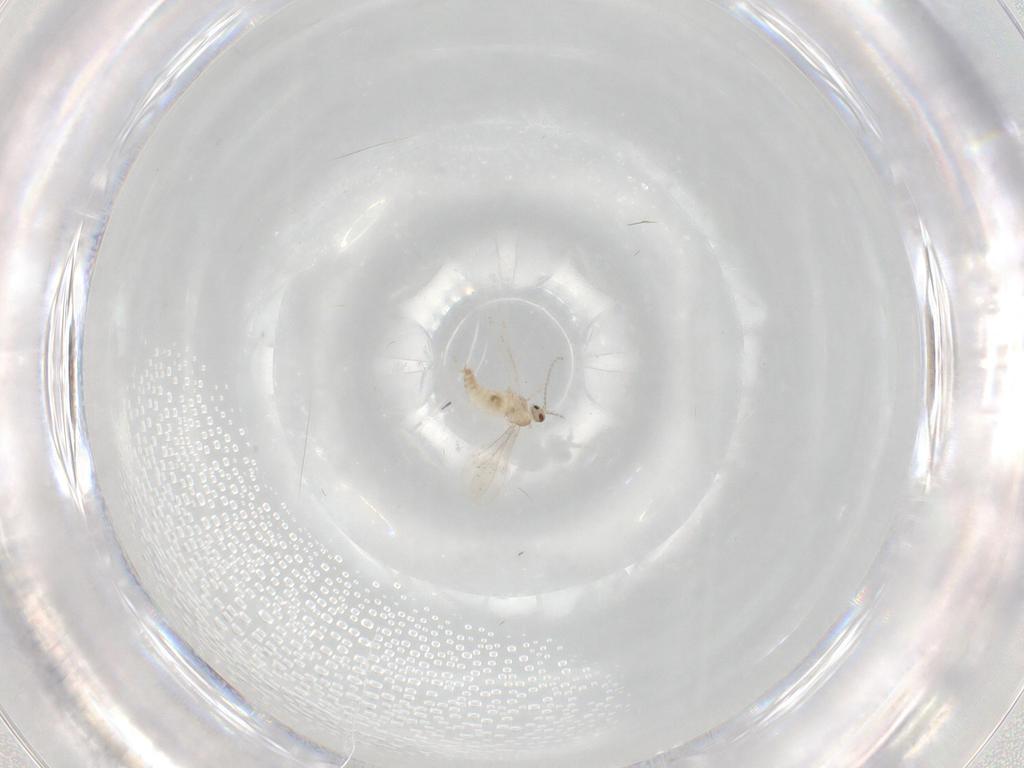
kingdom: Animalia
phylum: Arthropoda
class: Insecta
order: Diptera
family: Cecidomyiidae
